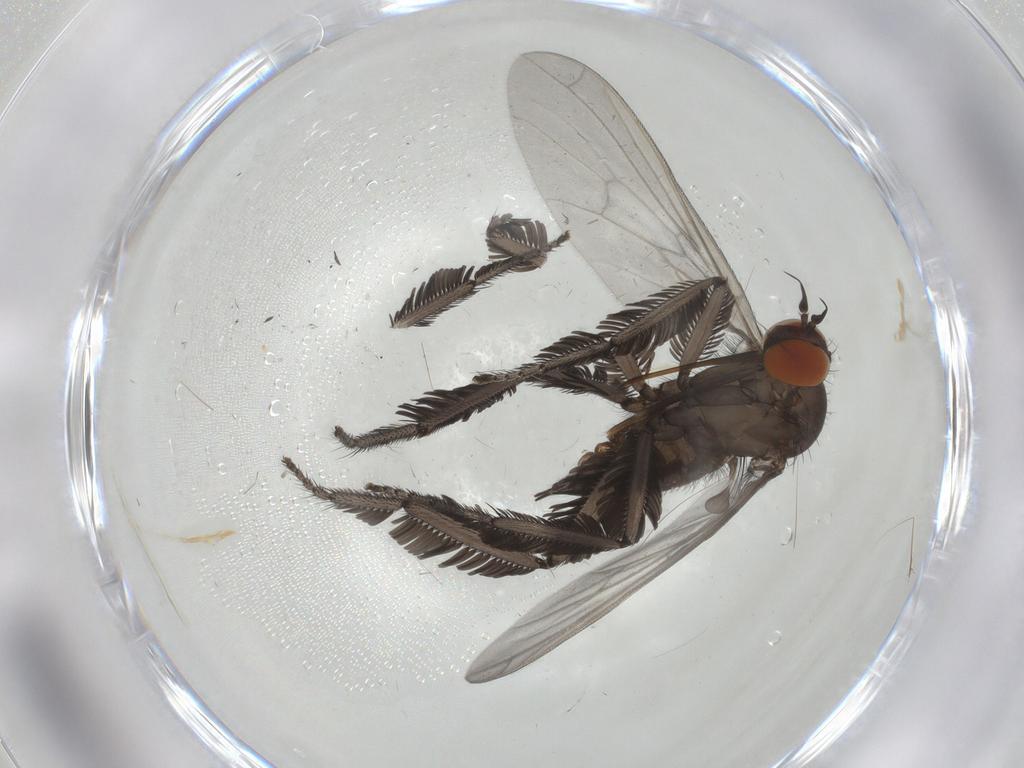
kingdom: Animalia
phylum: Arthropoda
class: Insecta
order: Diptera
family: Empididae
